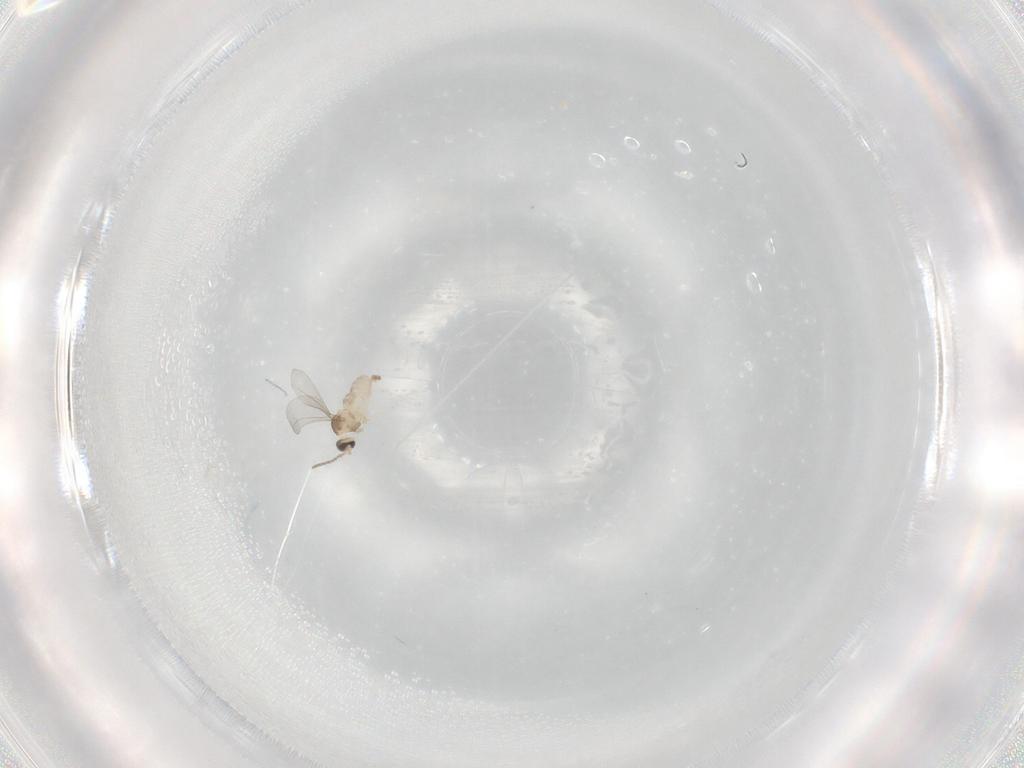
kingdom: Animalia
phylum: Arthropoda
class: Insecta
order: Diptera
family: Cecidomyiidae
